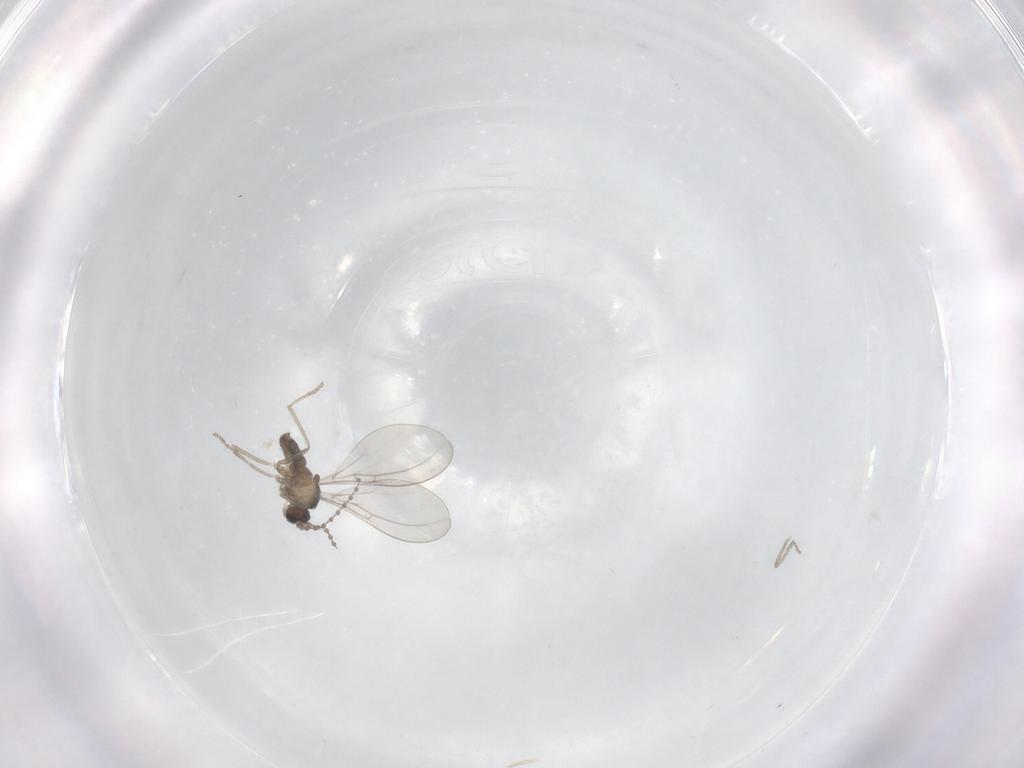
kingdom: Animalia
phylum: Arthropoda
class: Insecta
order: Diptera
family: Cecidomyiidae
